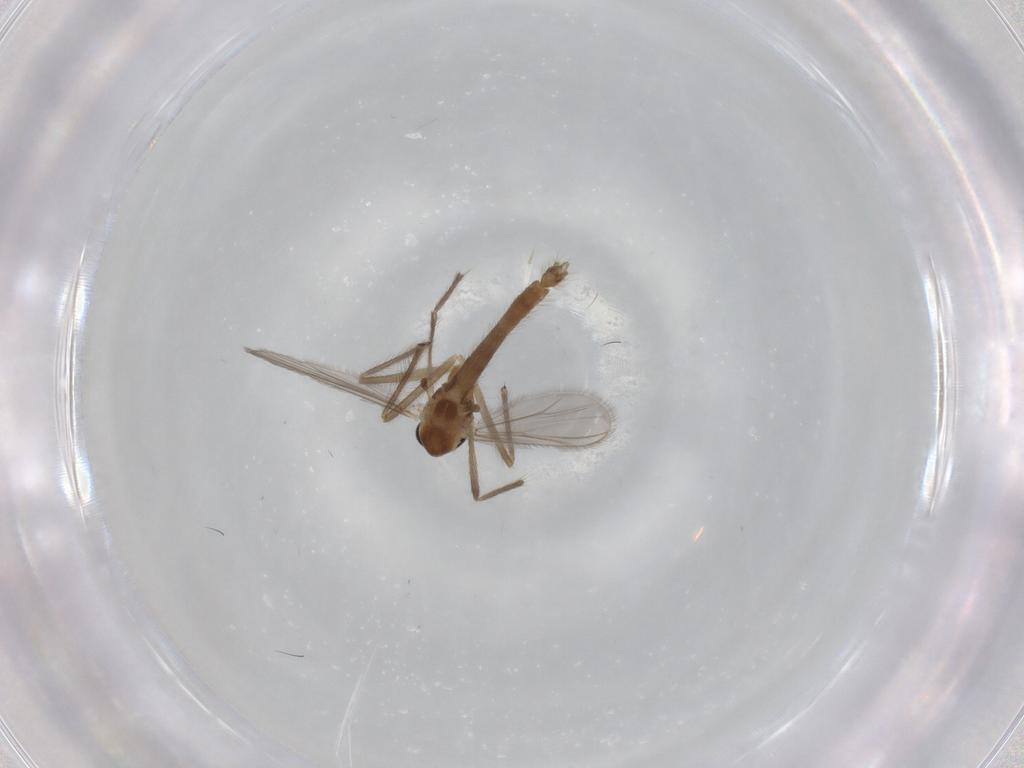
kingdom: Animalia
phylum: Arthropoda
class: Insecta
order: Diptera
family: Chironomidae
